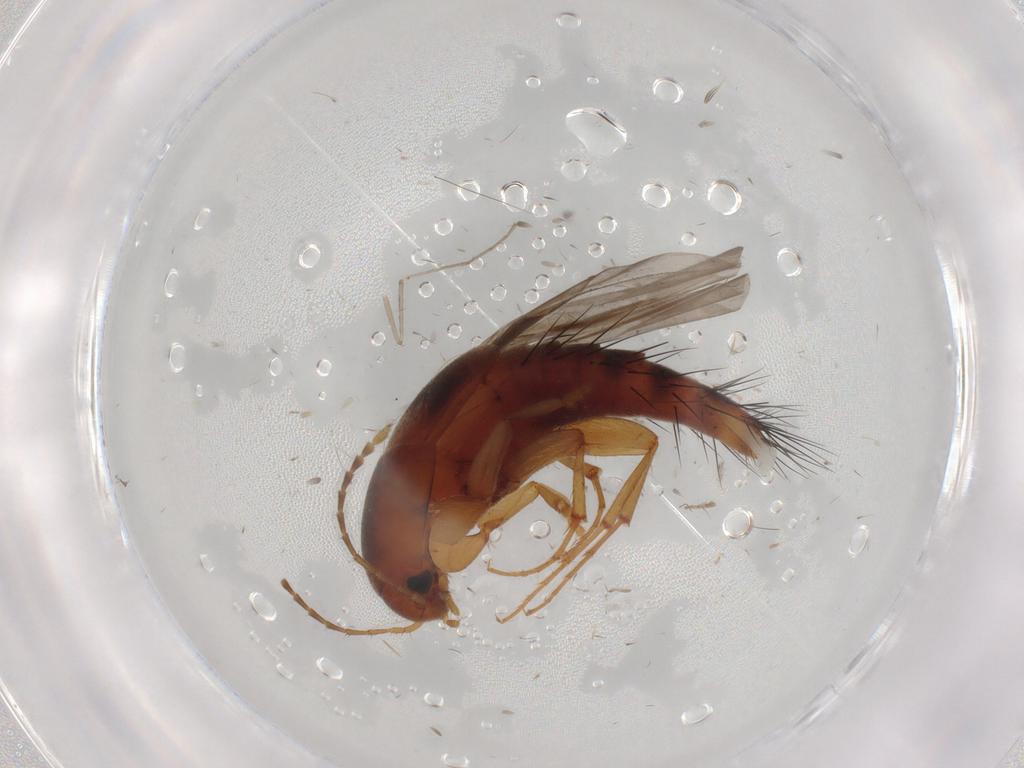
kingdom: Animalia
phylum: Arthropoda
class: Insecta
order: Coleoptera
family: Staphylinidae
